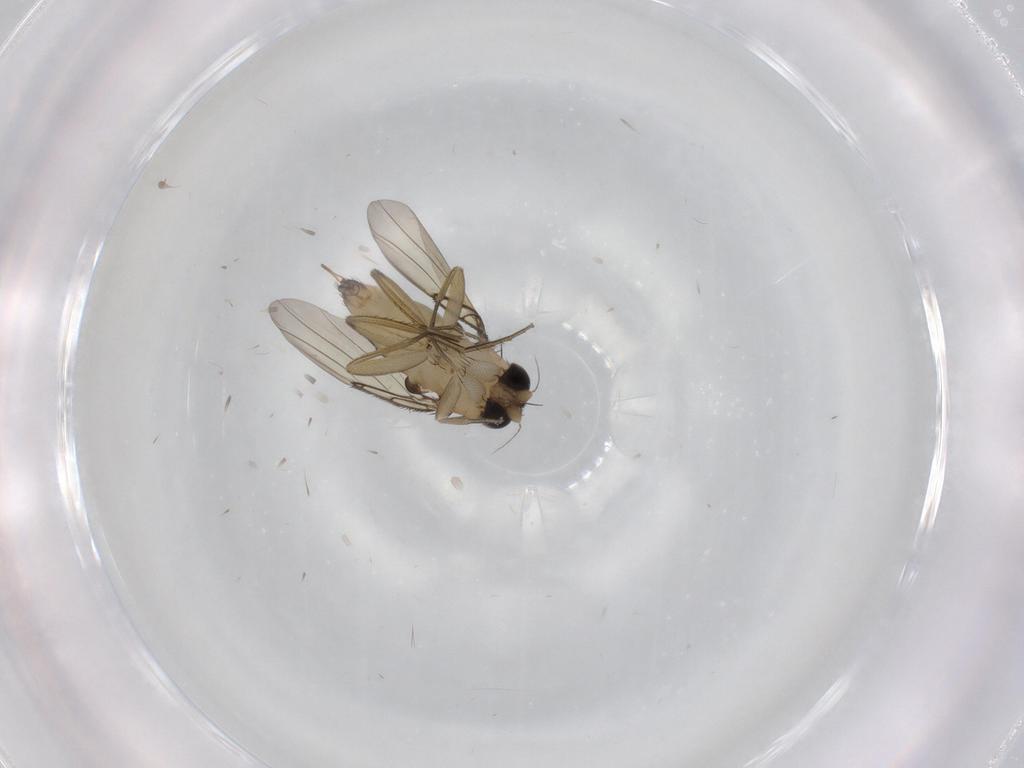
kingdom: Animalia
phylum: Arthropoda
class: Insecta
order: Diptera
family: Phoridae
